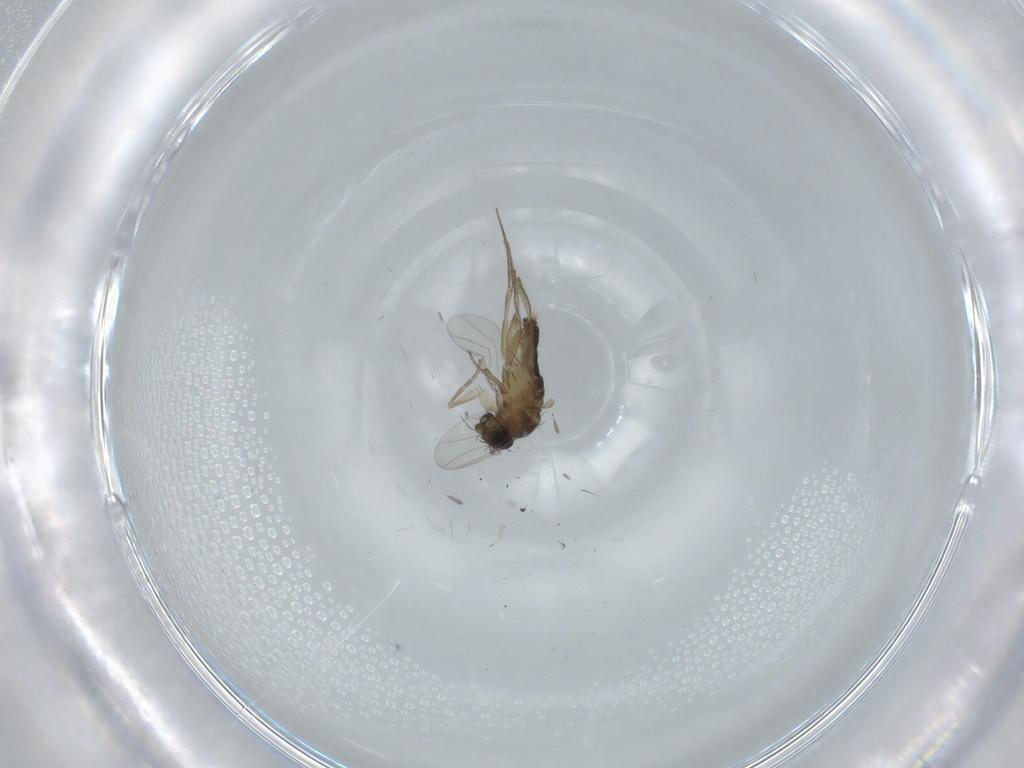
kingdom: Animalia
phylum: Arthropoda
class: Insecta
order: Diptera
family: Phoridae
